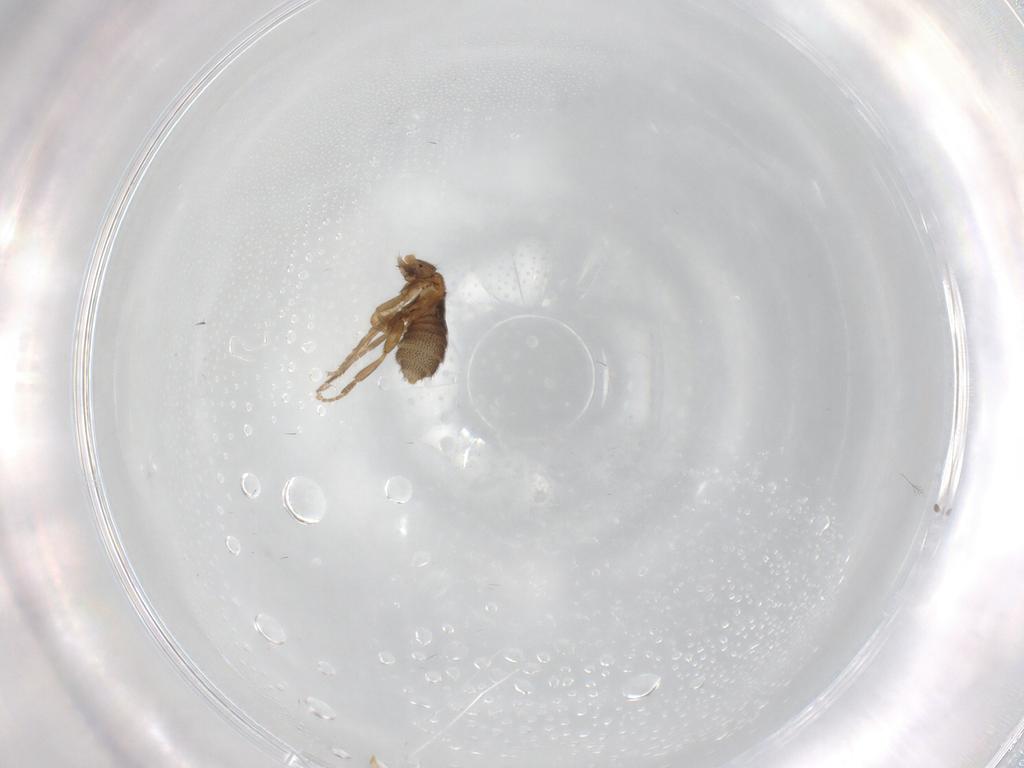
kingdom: Animalia
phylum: Arthropoda
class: Insecta
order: Diptera
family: Chironomidae
